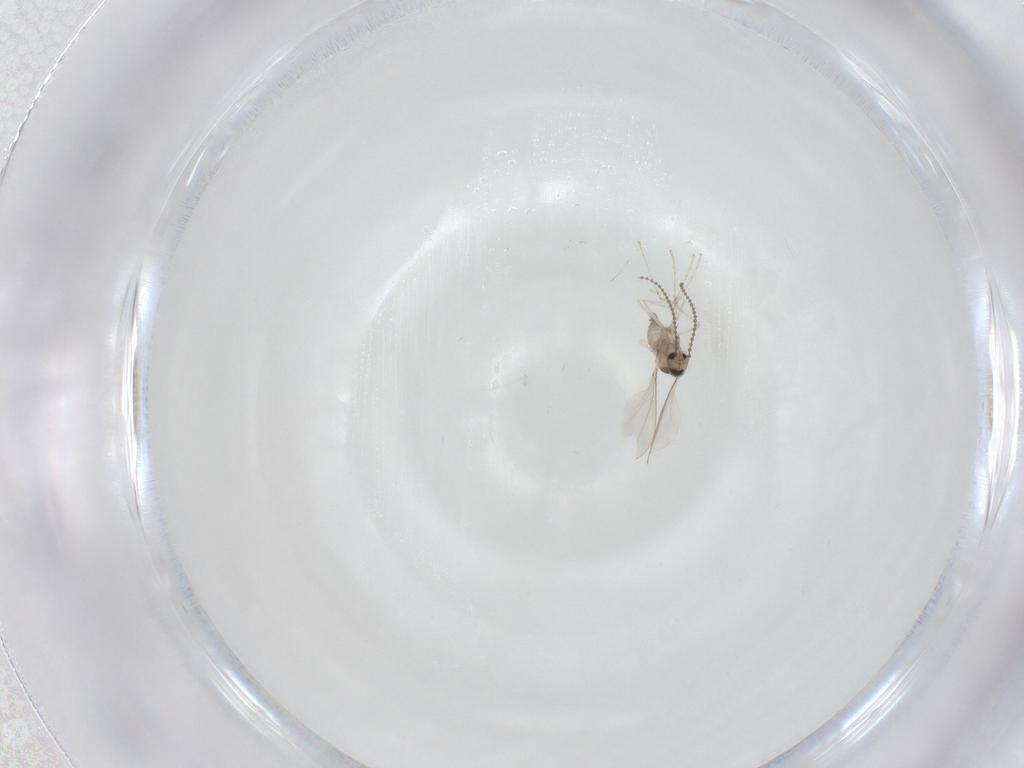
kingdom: Animalia
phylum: Arthropoda
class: Insecta
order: Diptera
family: Cecidomyiidae
